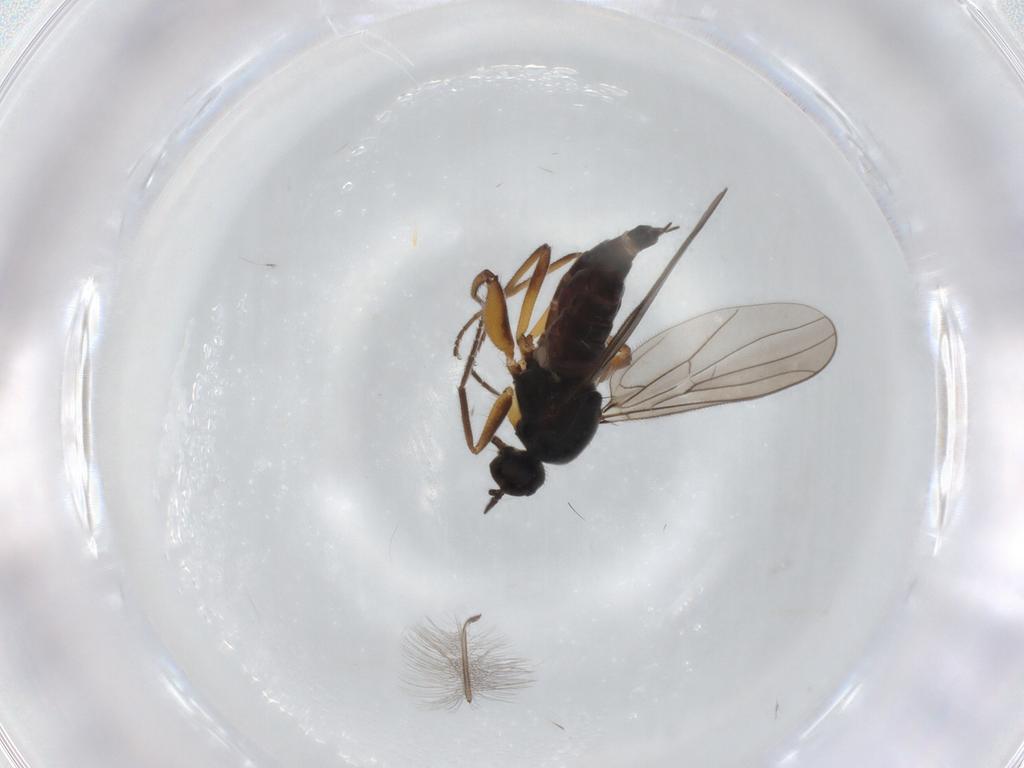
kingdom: Animalia
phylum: Arthropoda
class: Insecta
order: Diptera
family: Hybotidae
